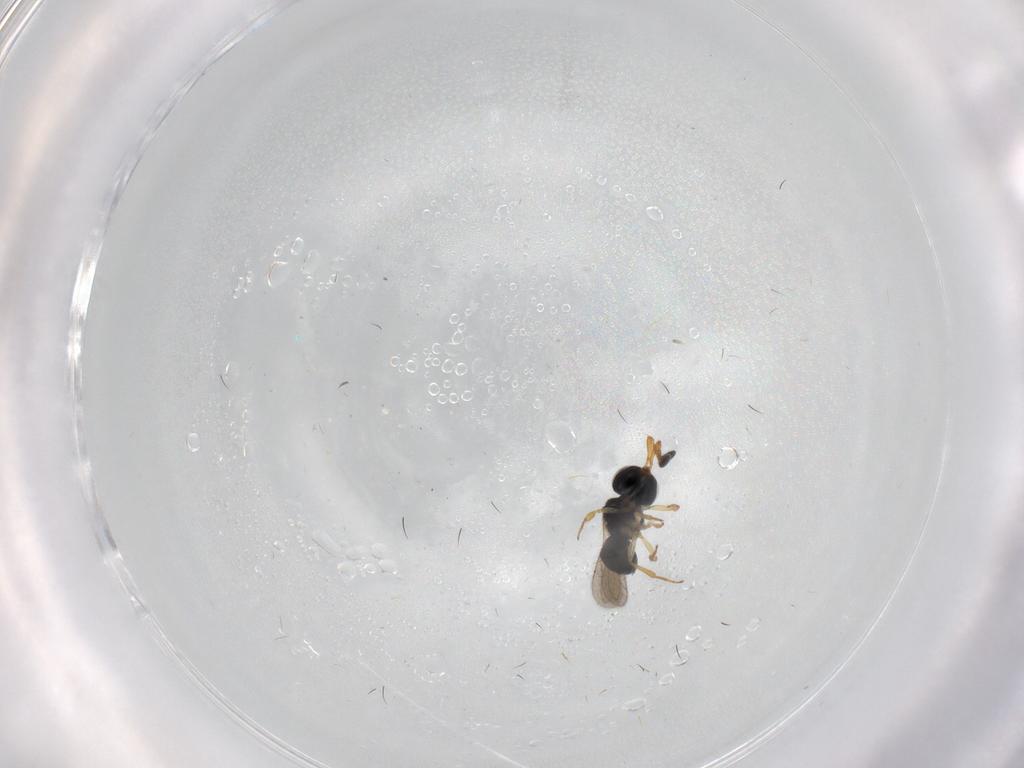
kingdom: Animalia
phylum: Arthropoda
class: Insecta
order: Hymenoptera
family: Scelionidae
